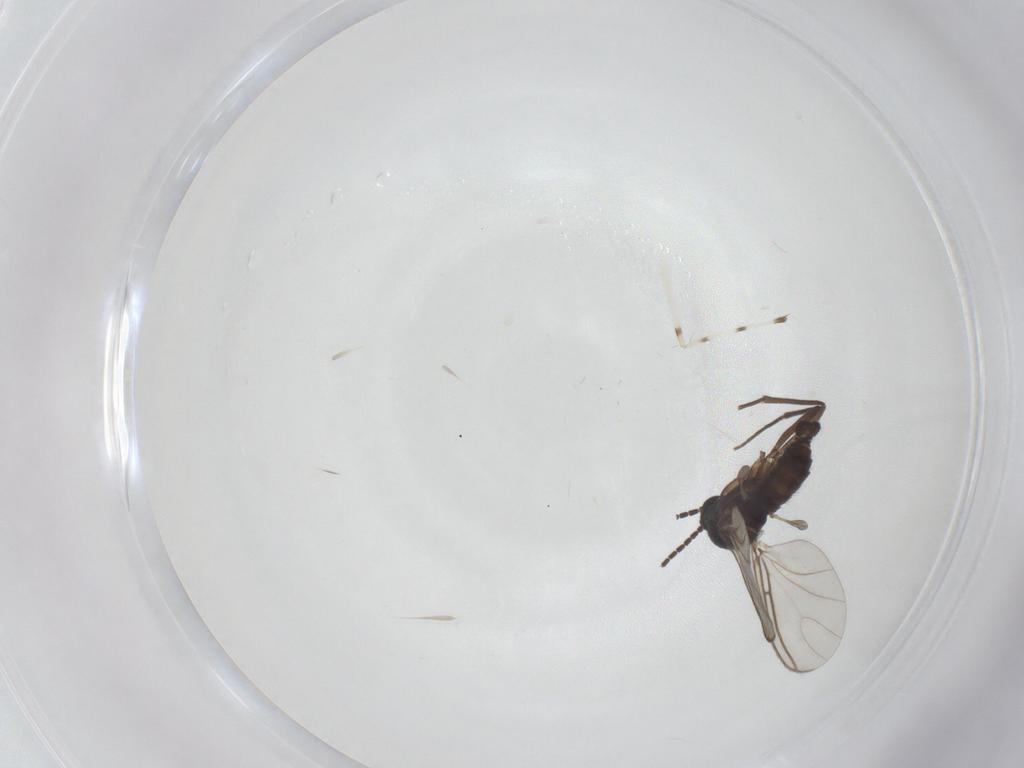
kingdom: Animalia
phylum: Arthropoda
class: Insecta
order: Diptera
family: Sciaridae
